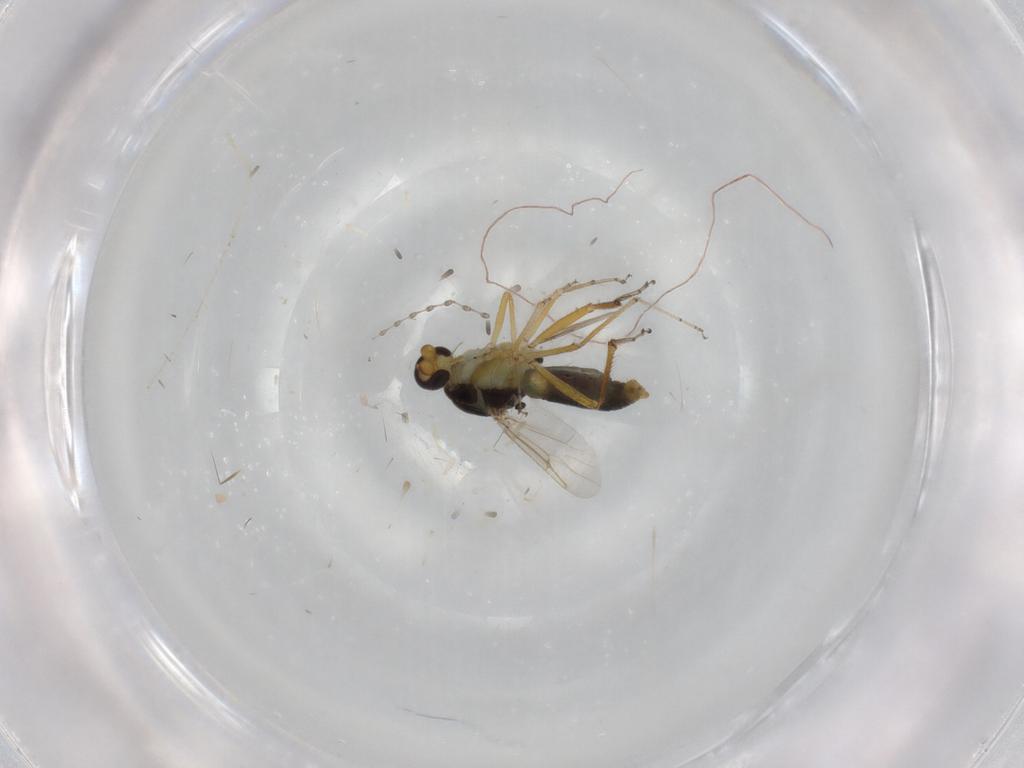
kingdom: Animalia
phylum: Arthropoda
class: Insecta
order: Diptera
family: Ceratopogonidae
